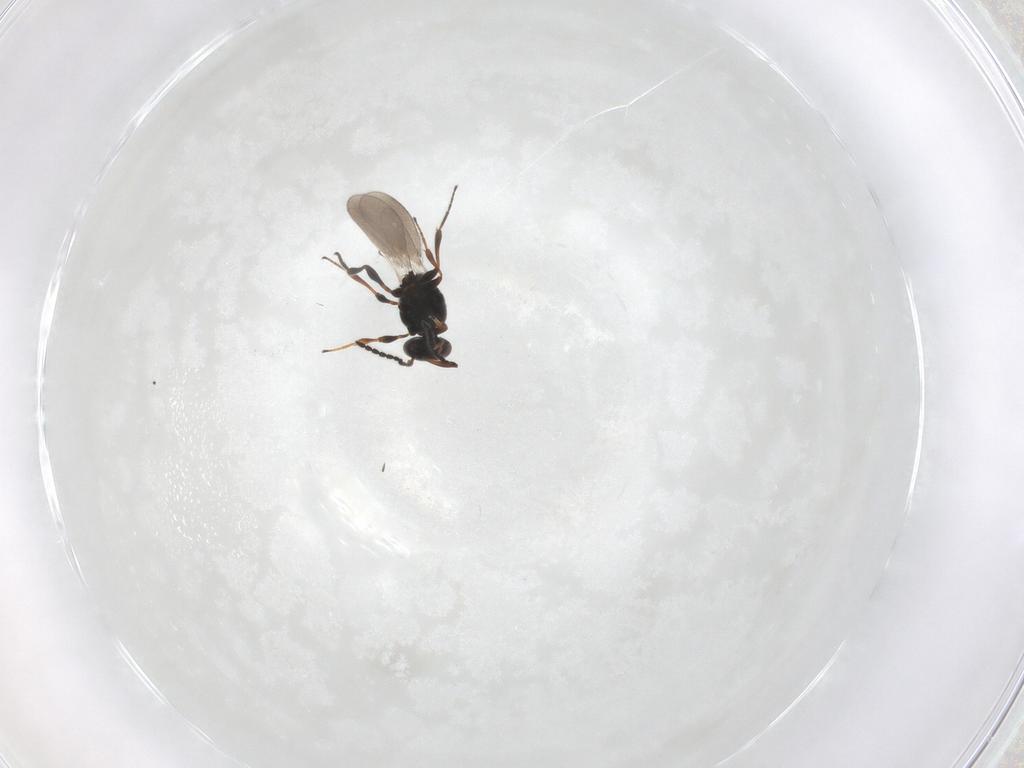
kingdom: Animalia
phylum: Arthropoda
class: Insecta
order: Hymenoptera
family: Platygastridae
